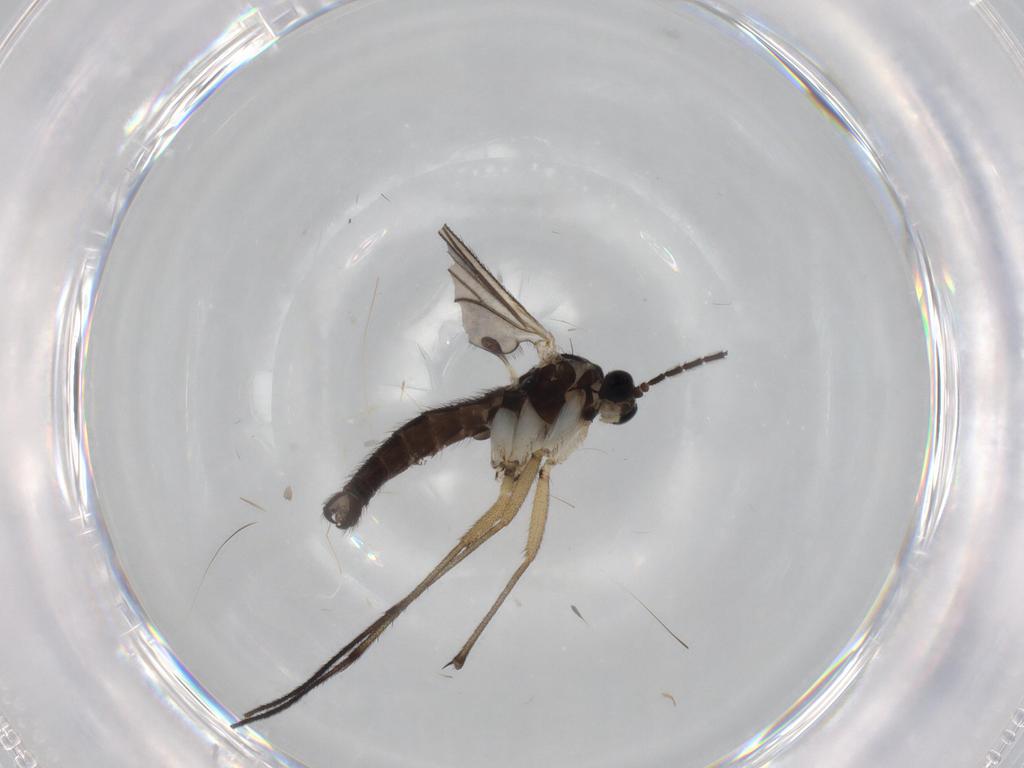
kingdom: Animalia
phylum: Arthropoda
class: Insecta
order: Diptera
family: Sciaridae
